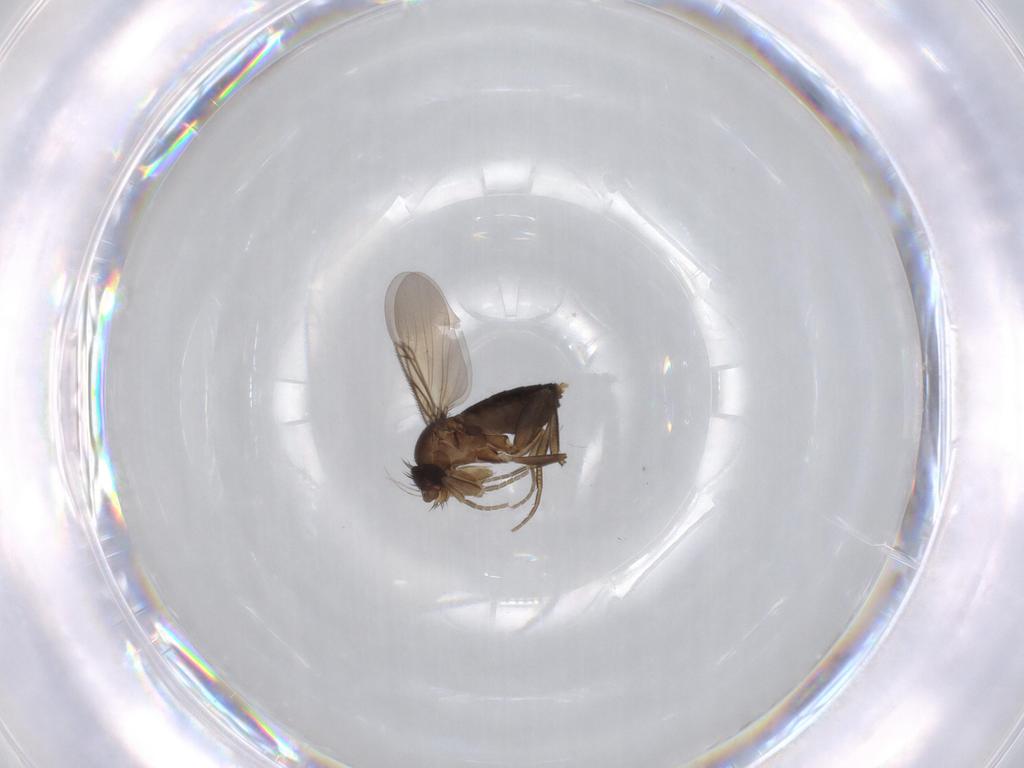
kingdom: Animalia
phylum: Arthropoda
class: Insecta
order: Diptera
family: Phoridae
